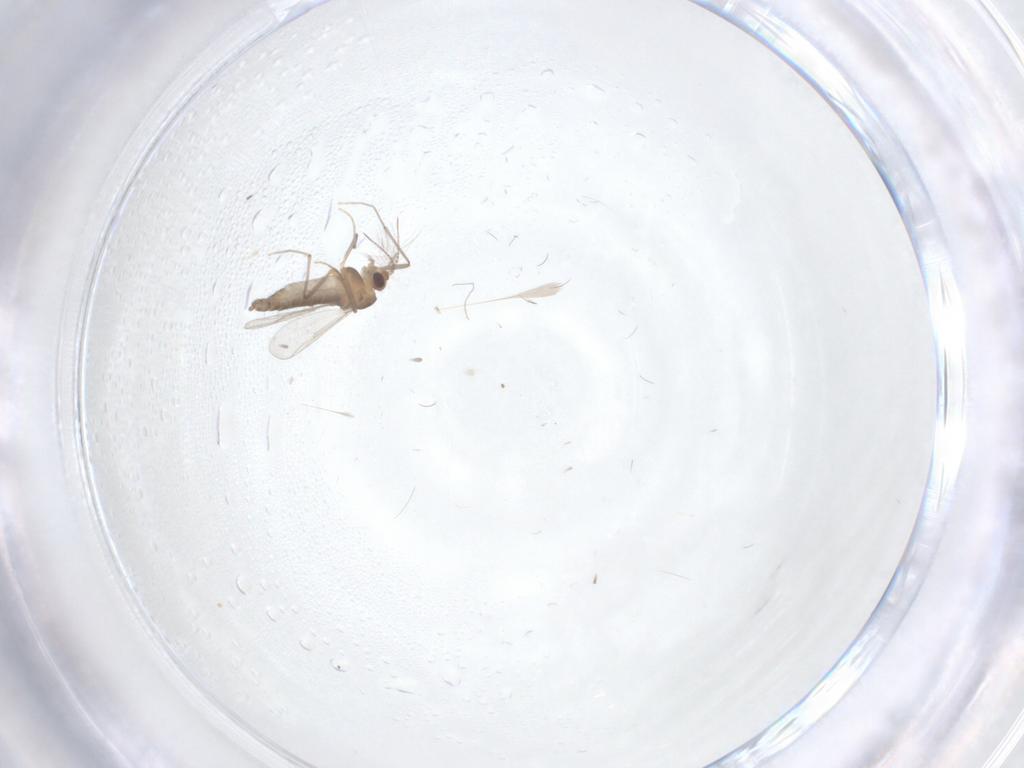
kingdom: Animalia
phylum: Arthropoda
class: Insecta
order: Diptera
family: Chironomidae
